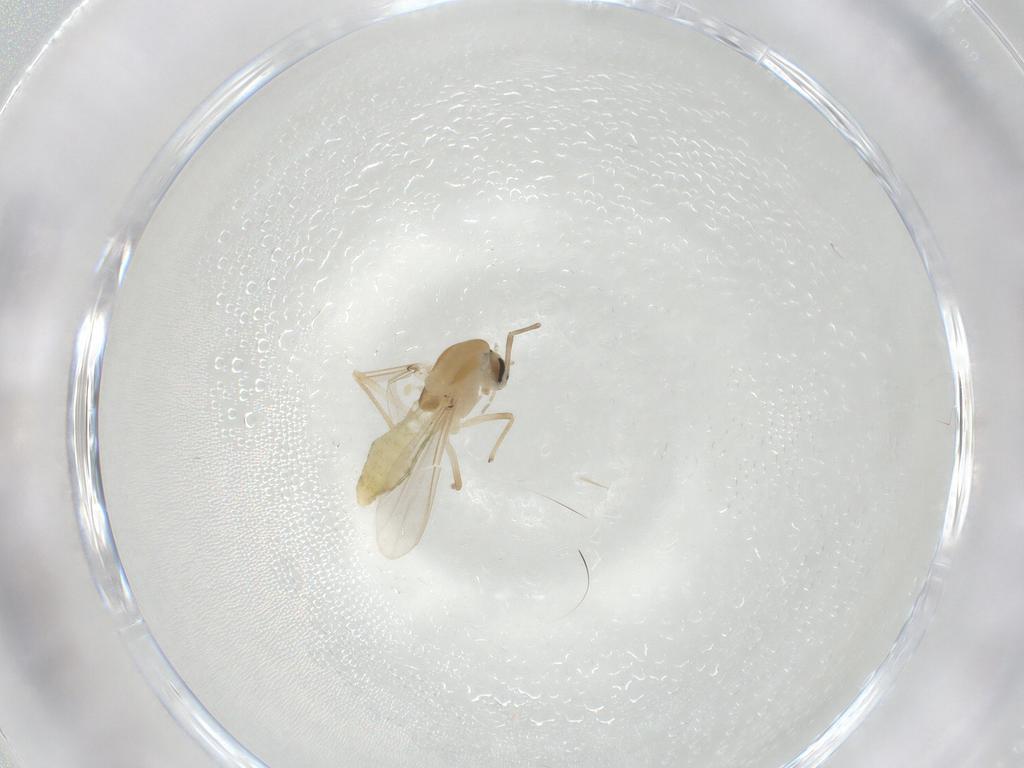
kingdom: Animalia
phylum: Arthropoda
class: Insecta
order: Diptera
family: Chironomidae
